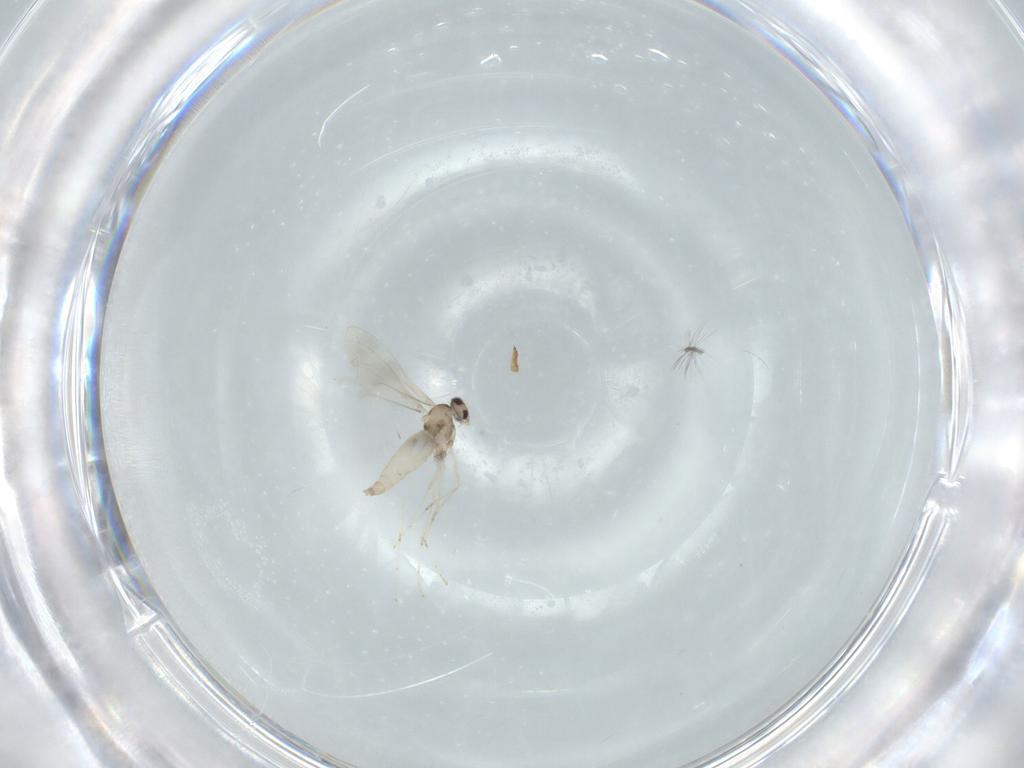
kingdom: Animalia
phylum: Arthropoda
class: Insecta
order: Diptera
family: Drosophilidae
